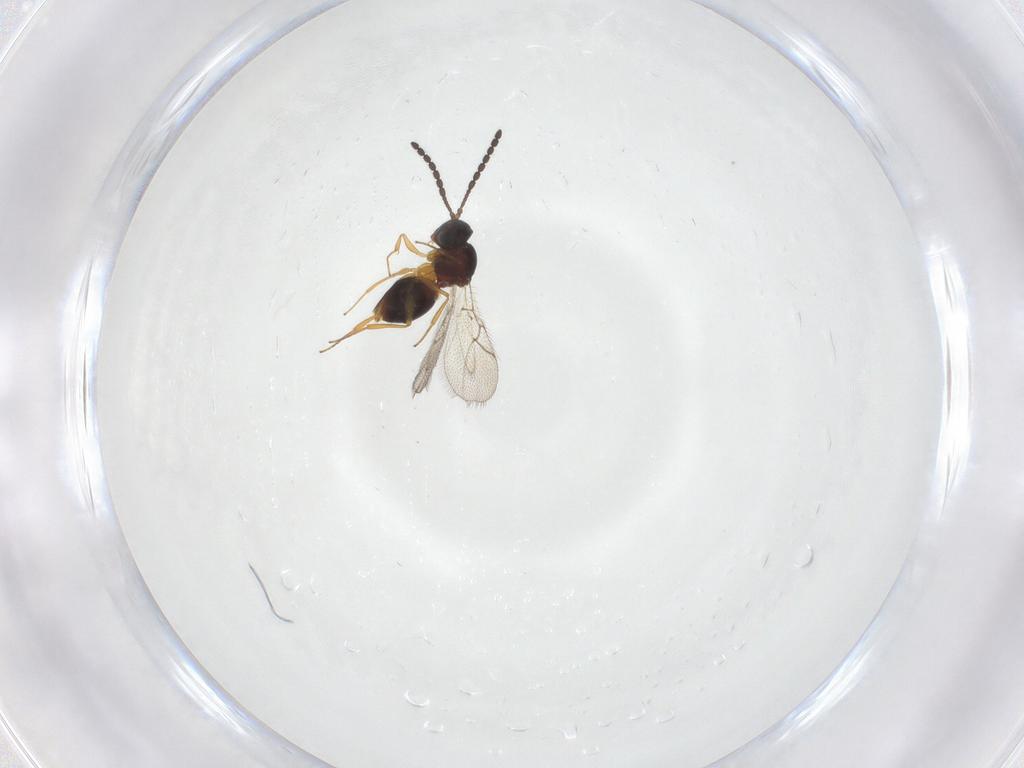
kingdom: Animalia
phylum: Arthropoda
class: Insecta
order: Hymenoptera
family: Figitidae
